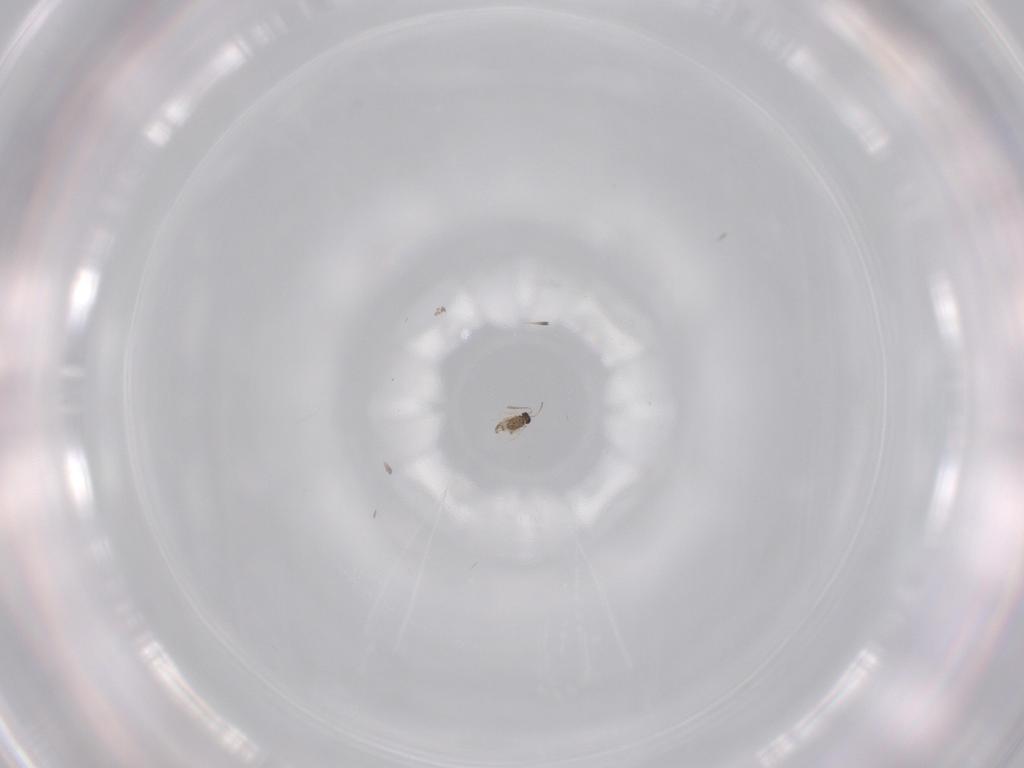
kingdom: Animalia
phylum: Arthropoda
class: Insecta
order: Hymenoptera
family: Mymaridae
